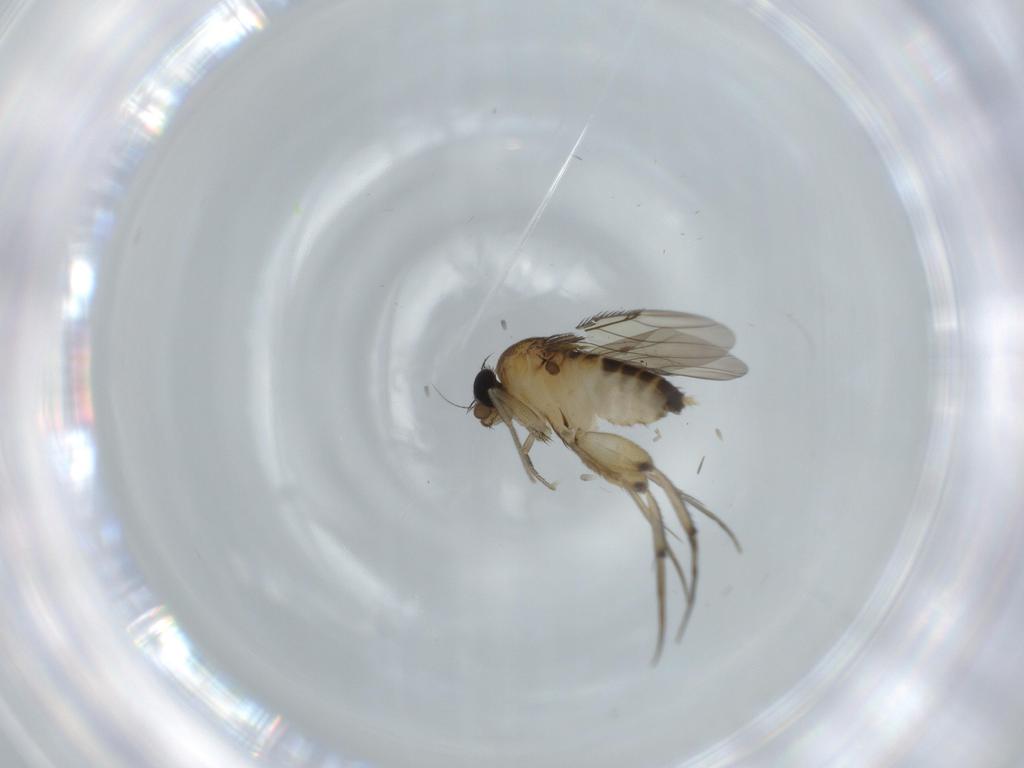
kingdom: Animalia
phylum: Arthropoda
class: Insecta
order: Diptera
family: Phoridae
